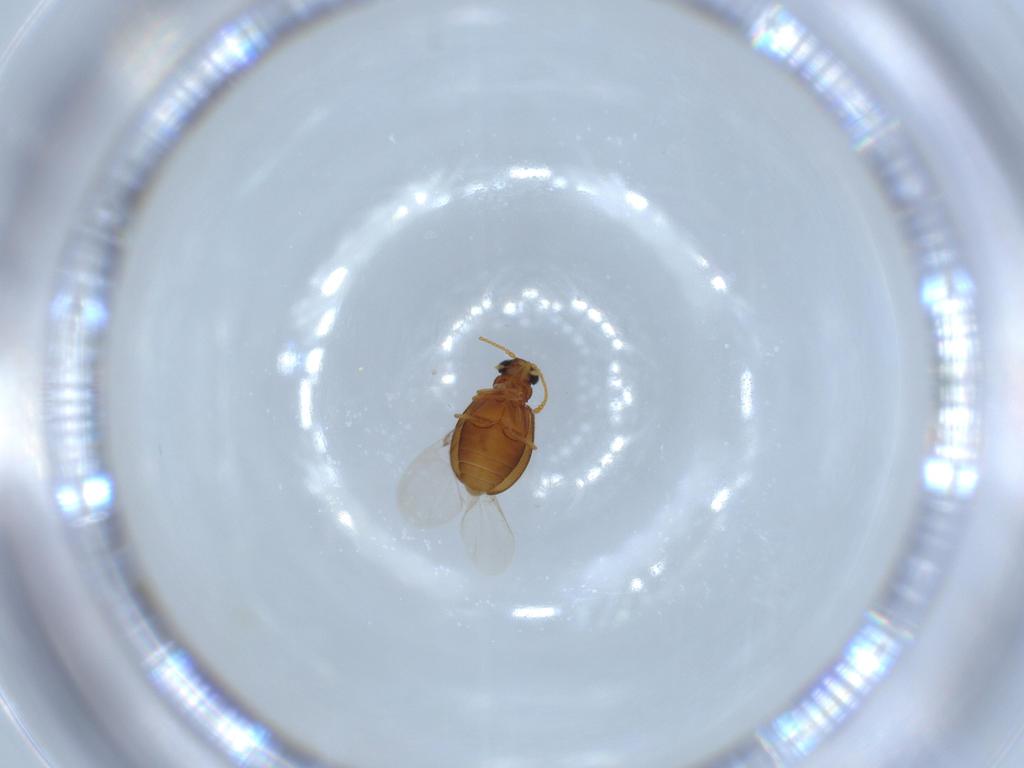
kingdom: Animalia
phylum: Arthropoda
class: Insecta
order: Coleoptera
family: Aderidae
